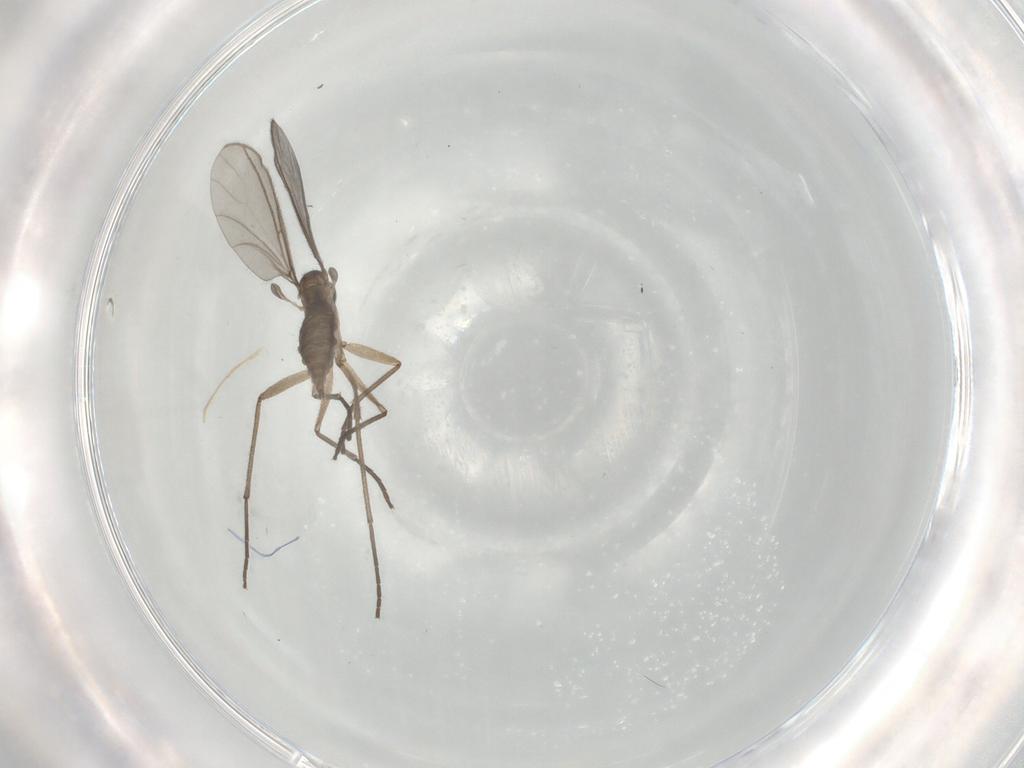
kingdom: Animalia
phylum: Arthropoda
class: Insecta
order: Diptera
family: Sciaridae
